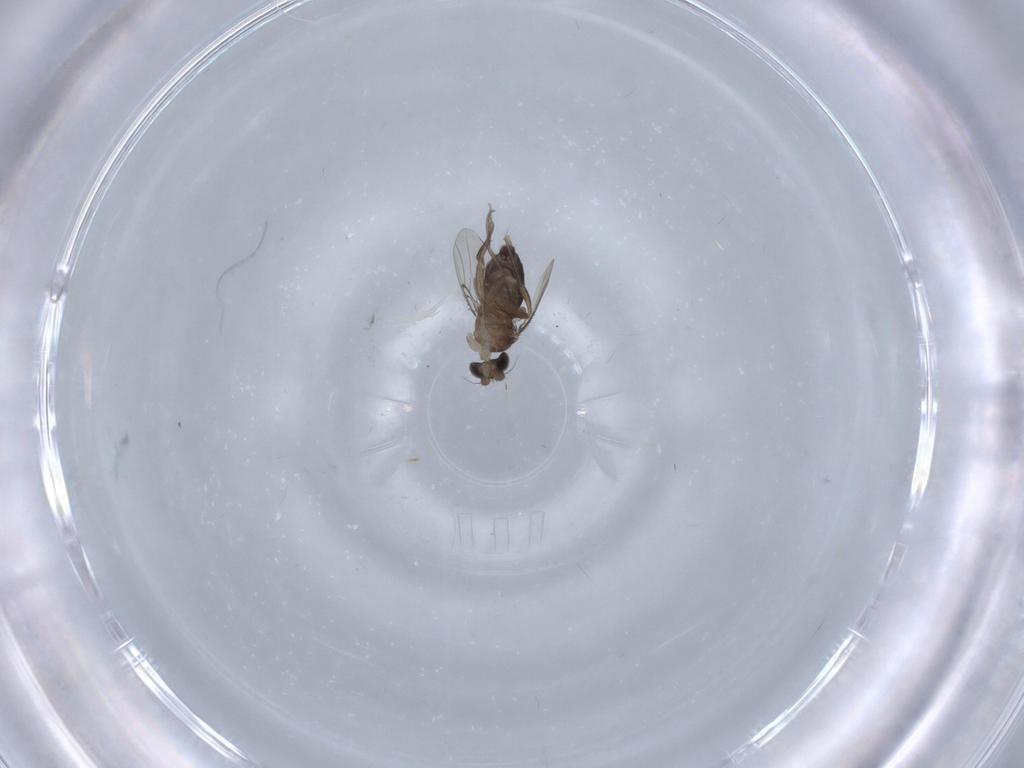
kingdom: Animalia
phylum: Arthropoda
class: Insecta
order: Diptera
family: Phoridae
